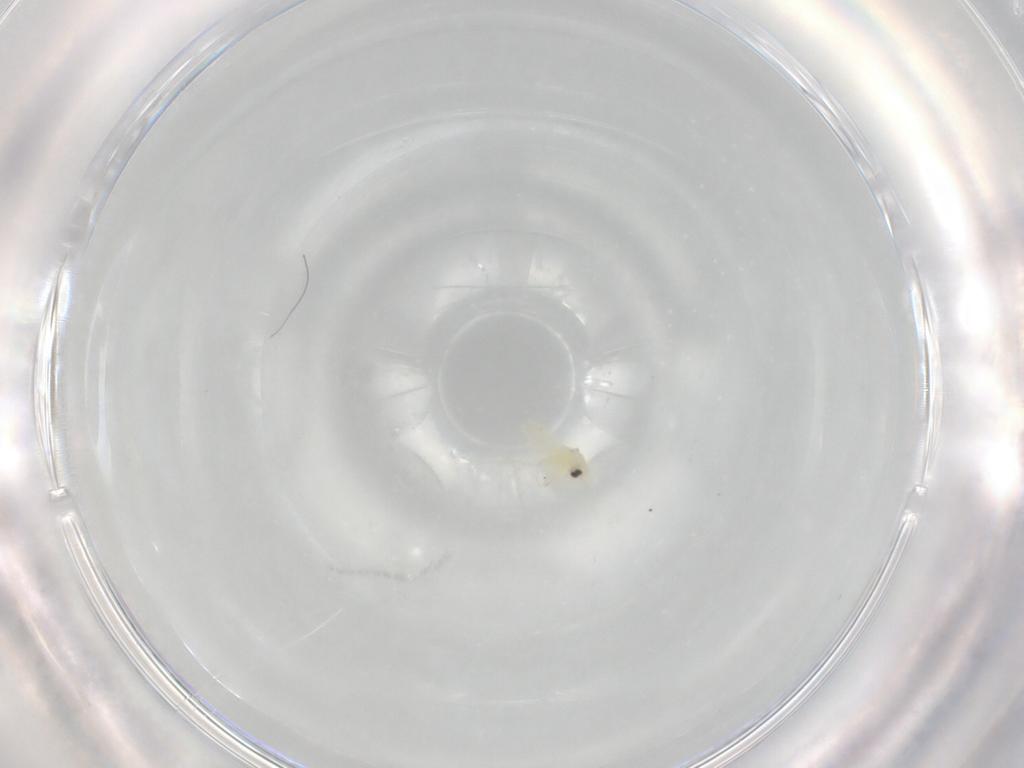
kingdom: Animalia
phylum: Arthropoda
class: Insecta
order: Hemiptera
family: Aleyrodidae
